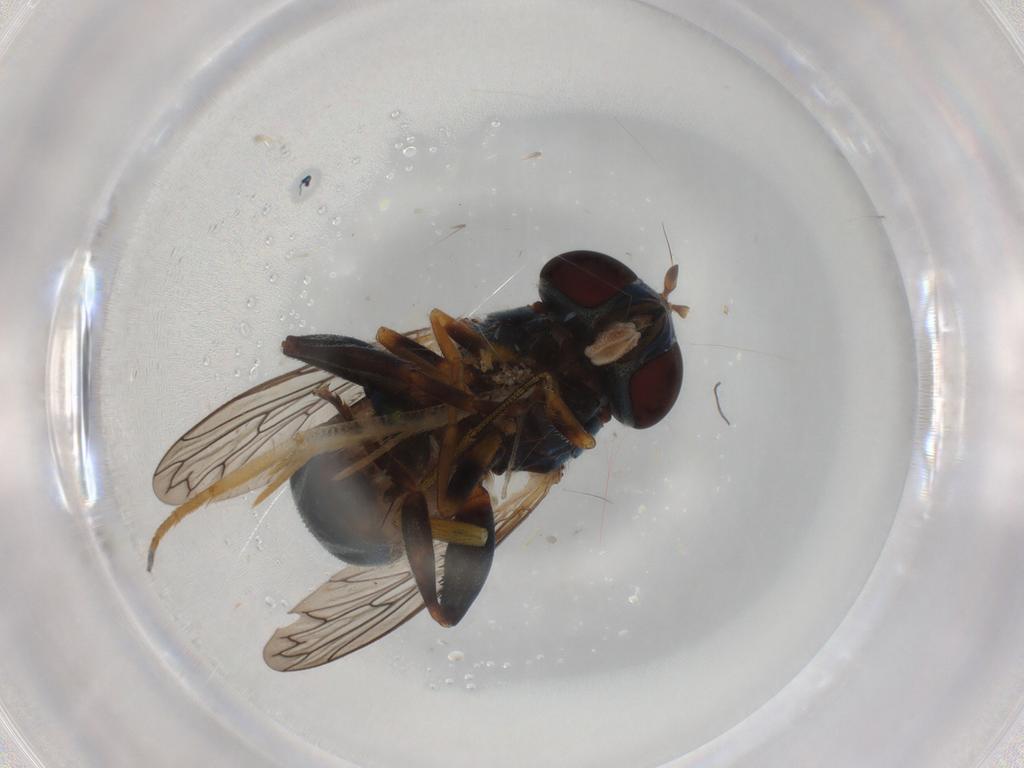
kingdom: Animalia
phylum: Arthropoda
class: Insecta
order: Diptera
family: Syrphidae
